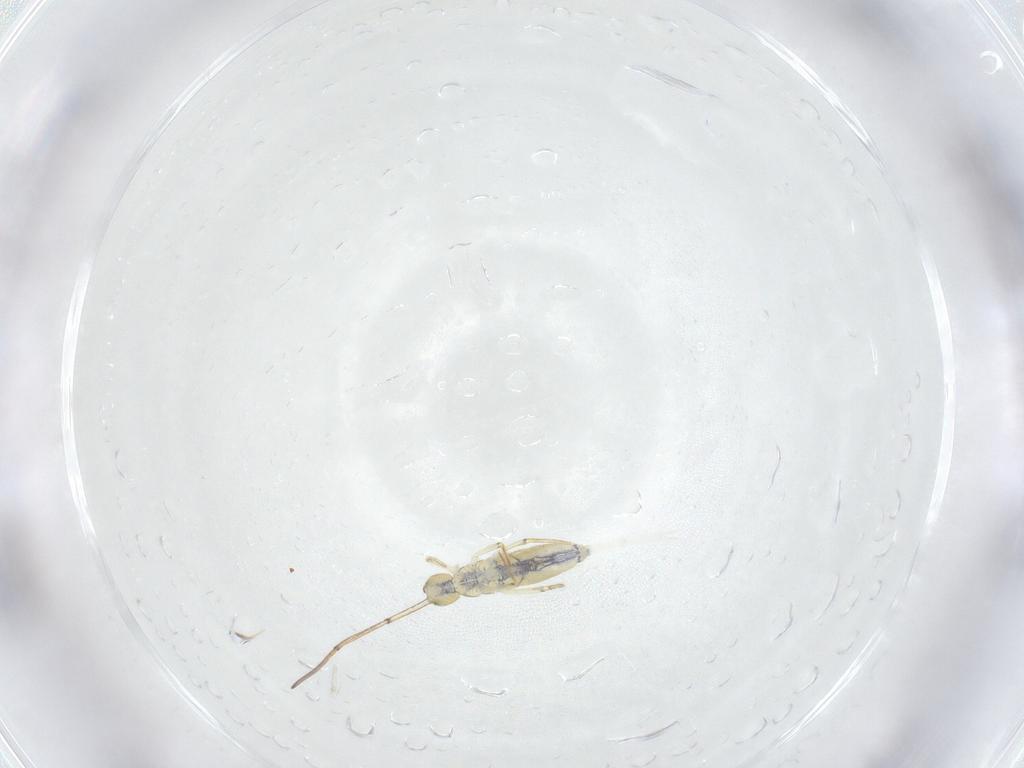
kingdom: Animalia
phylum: Arthropoda
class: Collembola
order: Entomobryomorpha
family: Paronellidae
